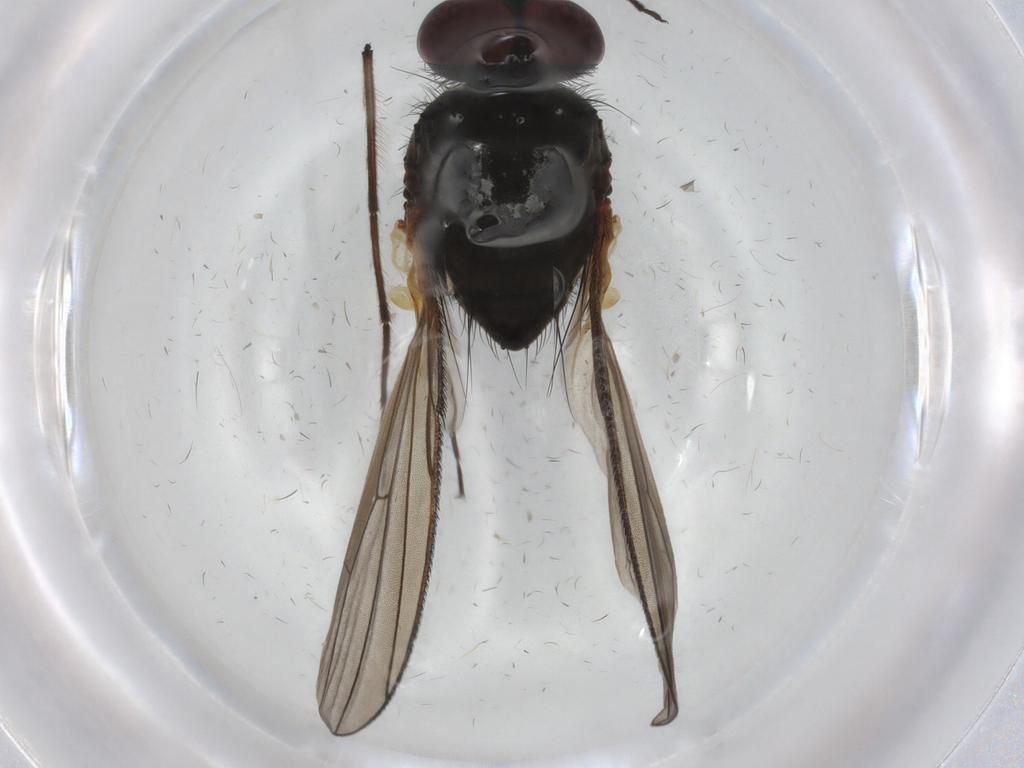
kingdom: Animalia
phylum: Arthropoda
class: Insecta
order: Diptera
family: Anthomyiidae
